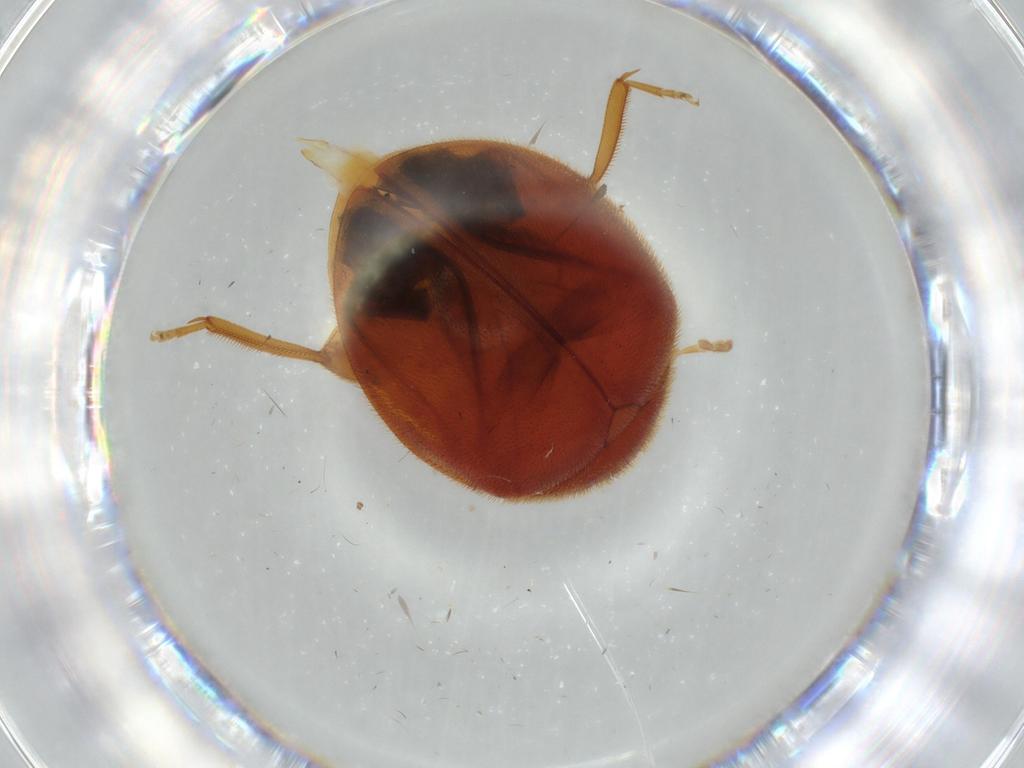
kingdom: Animalia
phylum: Arthropoda
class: Insecta
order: Coleoptera
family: Scirtidae
